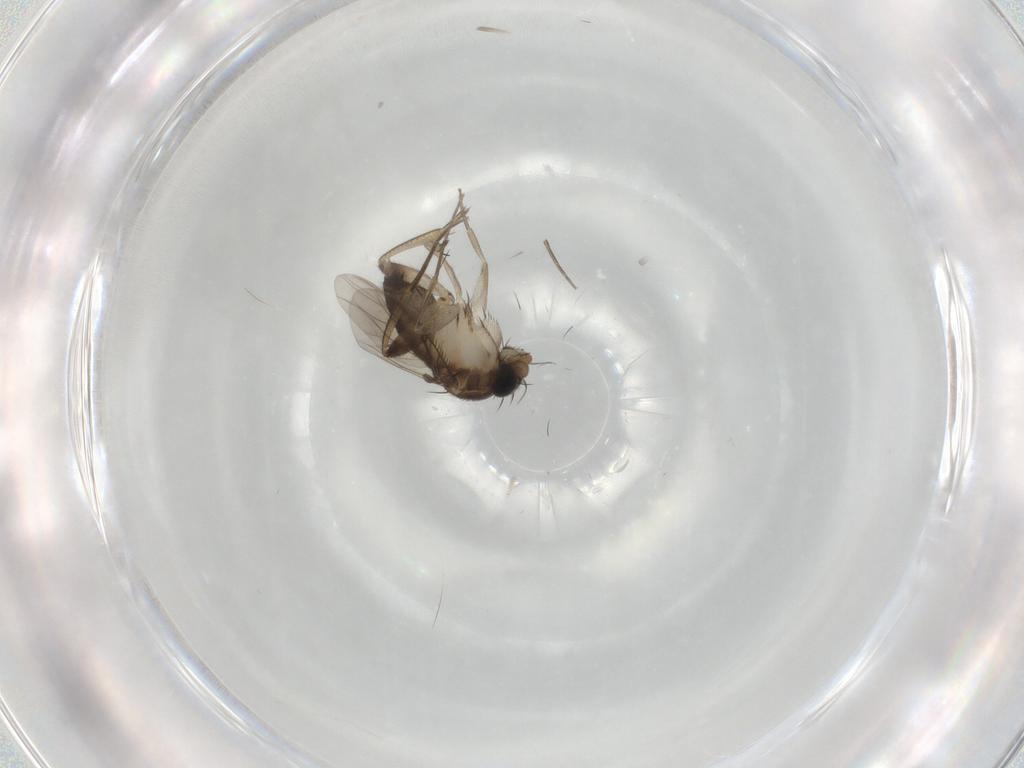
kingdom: Animalia
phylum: Arthropoda
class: Insecta
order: Diptera
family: Phoridae
